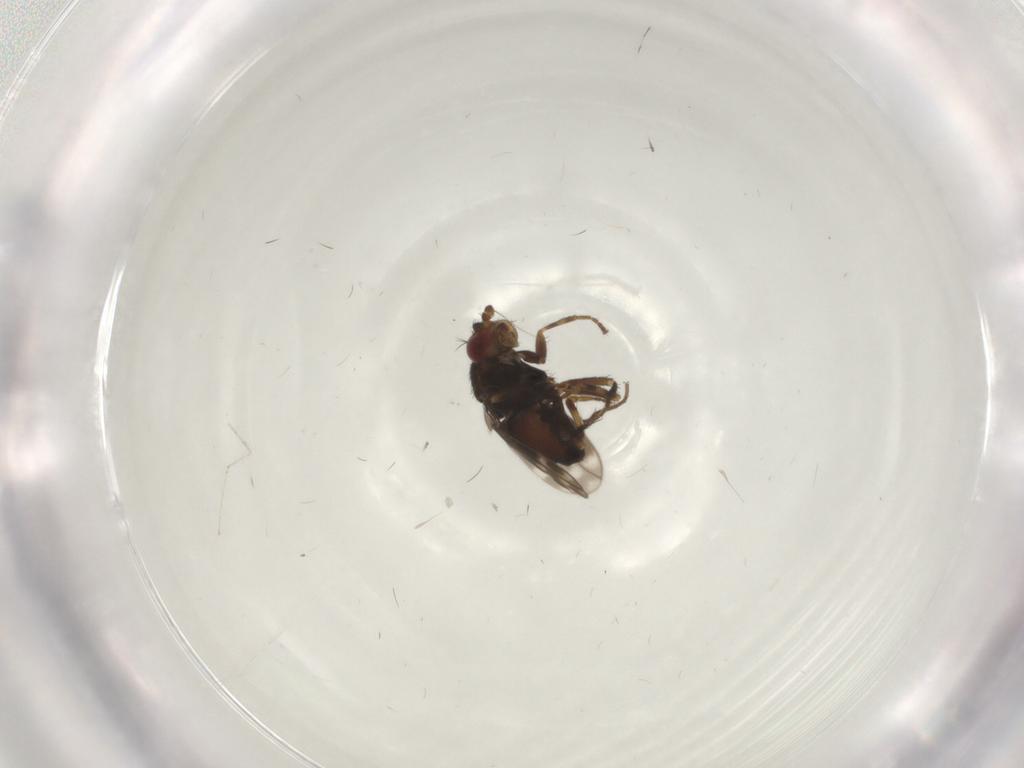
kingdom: Animalia
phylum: Arthropoda
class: Insecta
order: Diptera
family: Sphaeroceridae
